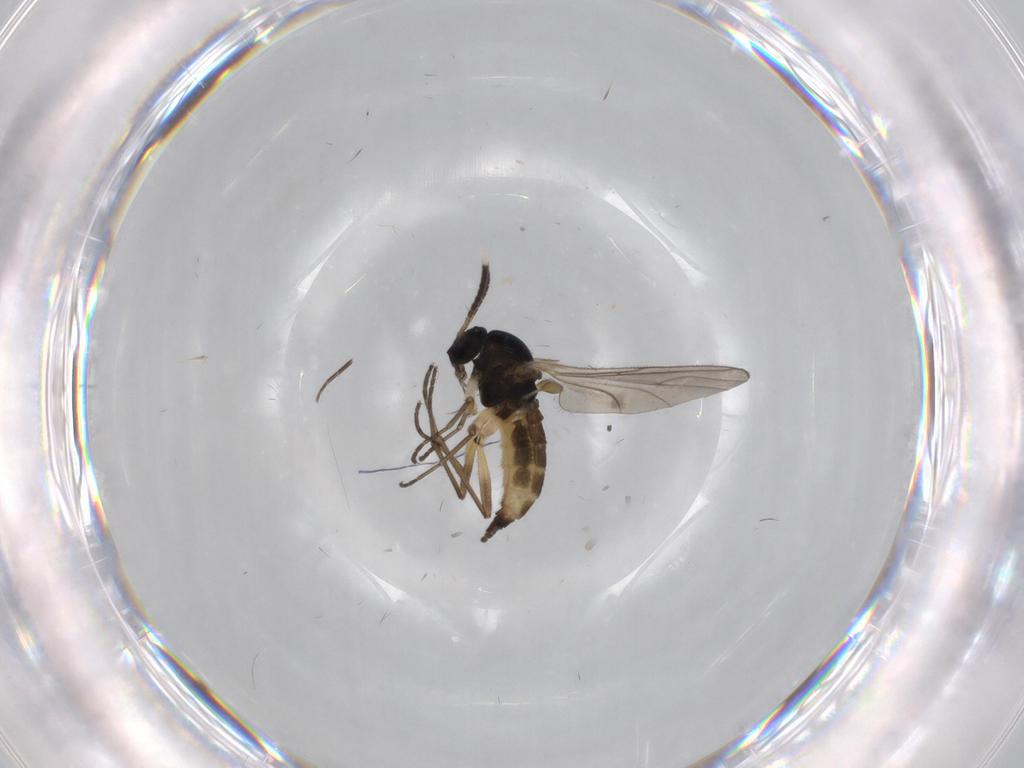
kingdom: Animalia
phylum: Arthropoda
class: Insecta
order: Diptera
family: Sciaridae
